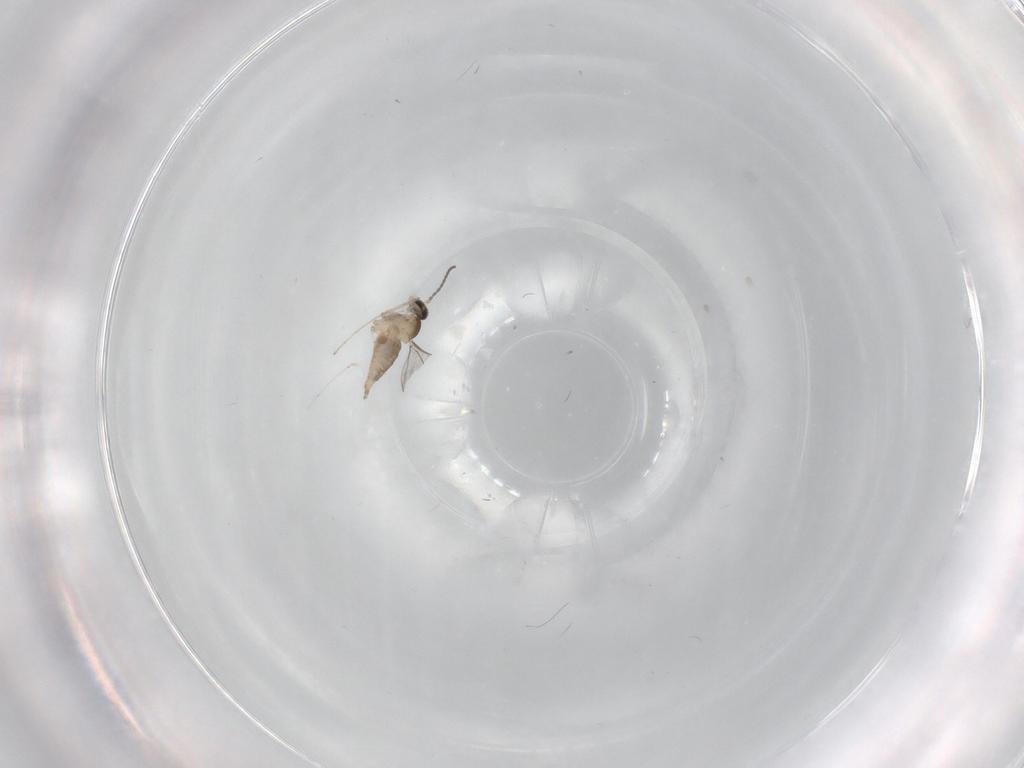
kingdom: Animalia
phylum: Arthropoda
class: Insecta
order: Diptera
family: Cecidomyiidae
